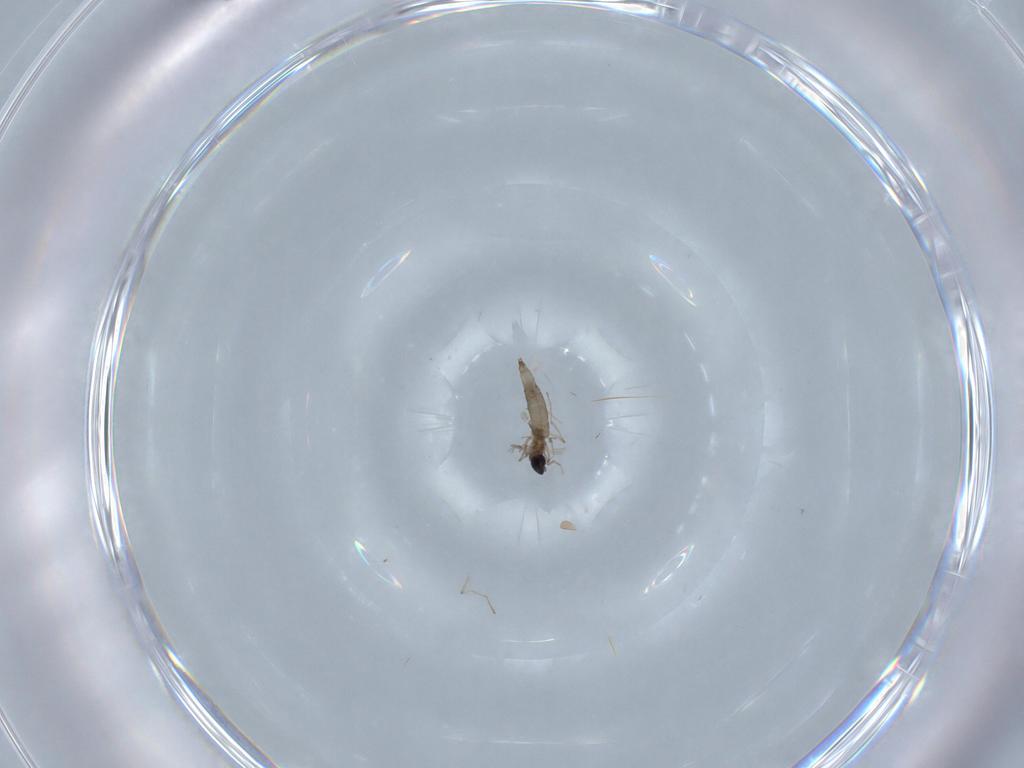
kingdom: Animalia
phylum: Arthropoda
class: Insecta
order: Diptera
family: Cecidomyiidae
